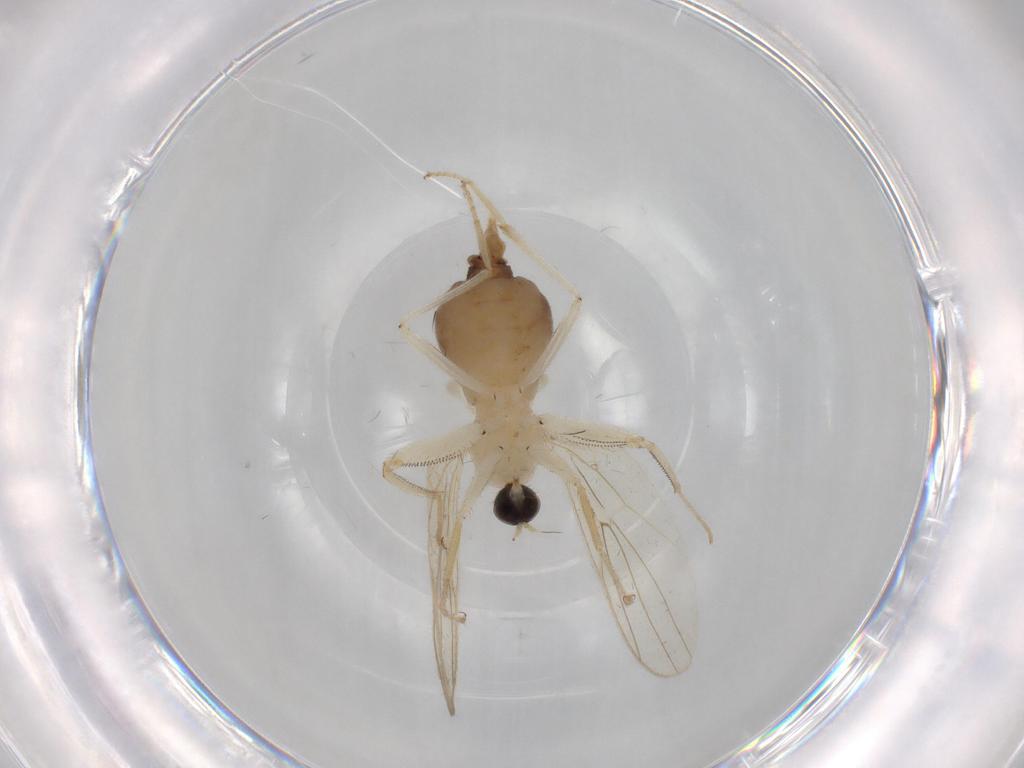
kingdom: Animalia
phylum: Arthropoda
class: Insecta
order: Diptera
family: Hybotidae
